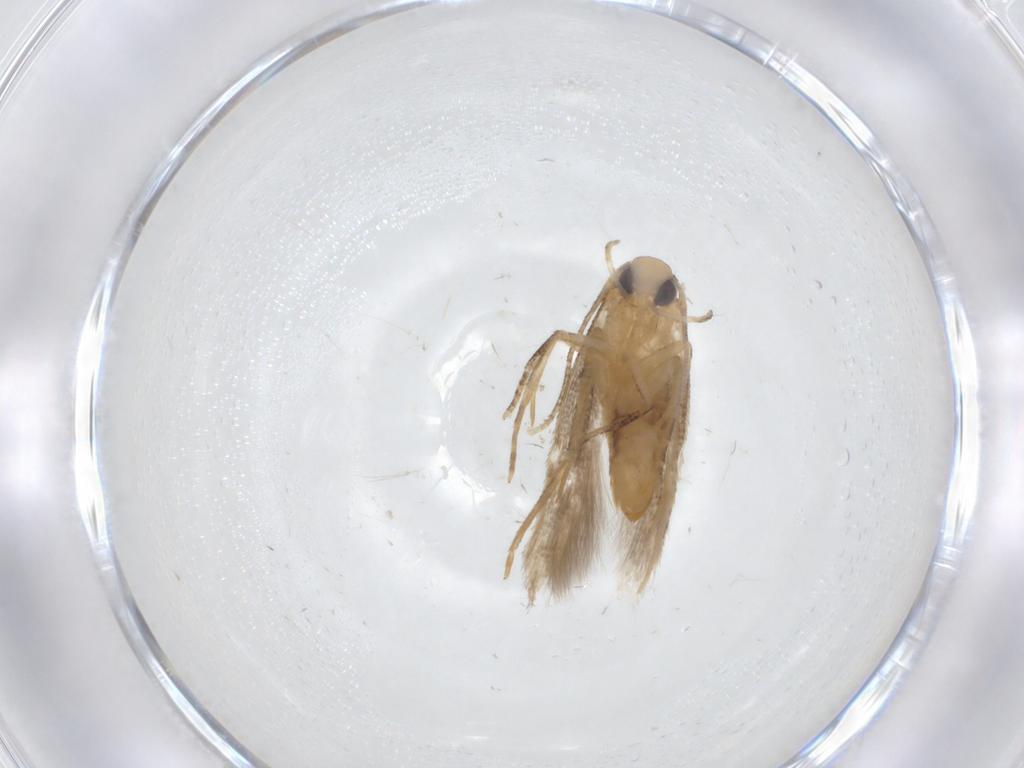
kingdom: Animalia
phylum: Arthropoda
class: Insecta
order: Lepidoptera
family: Cosmopterigidae
